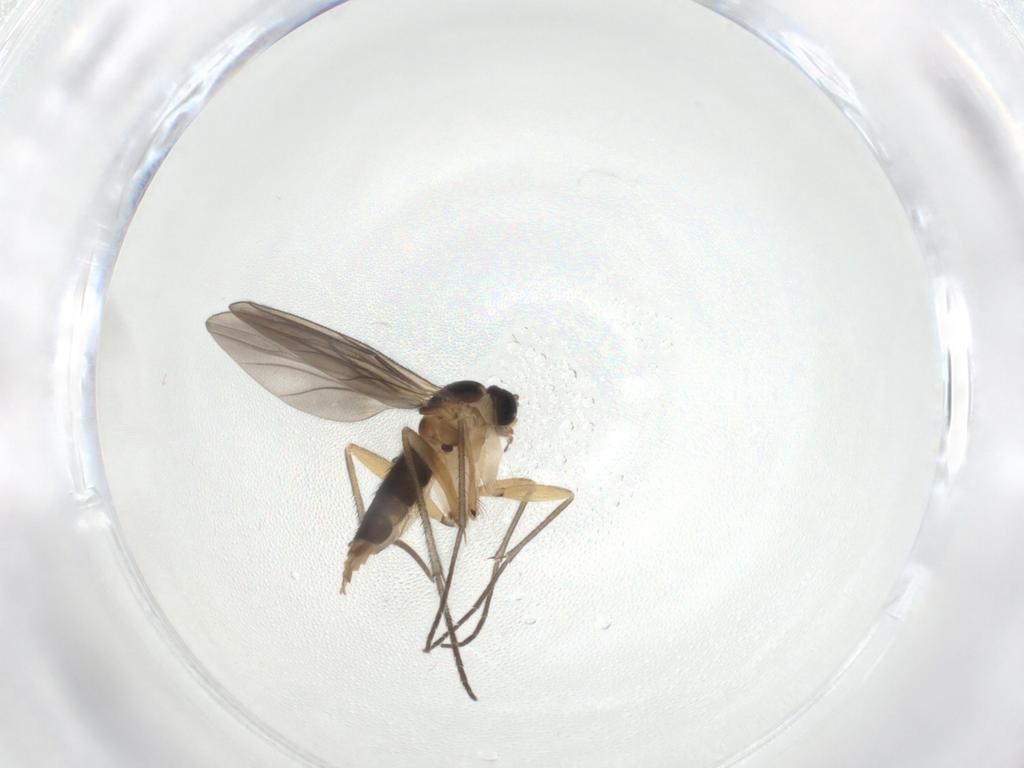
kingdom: Animalia
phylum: Arthropoda
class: Insecta
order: Diptera
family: Sciaridae
